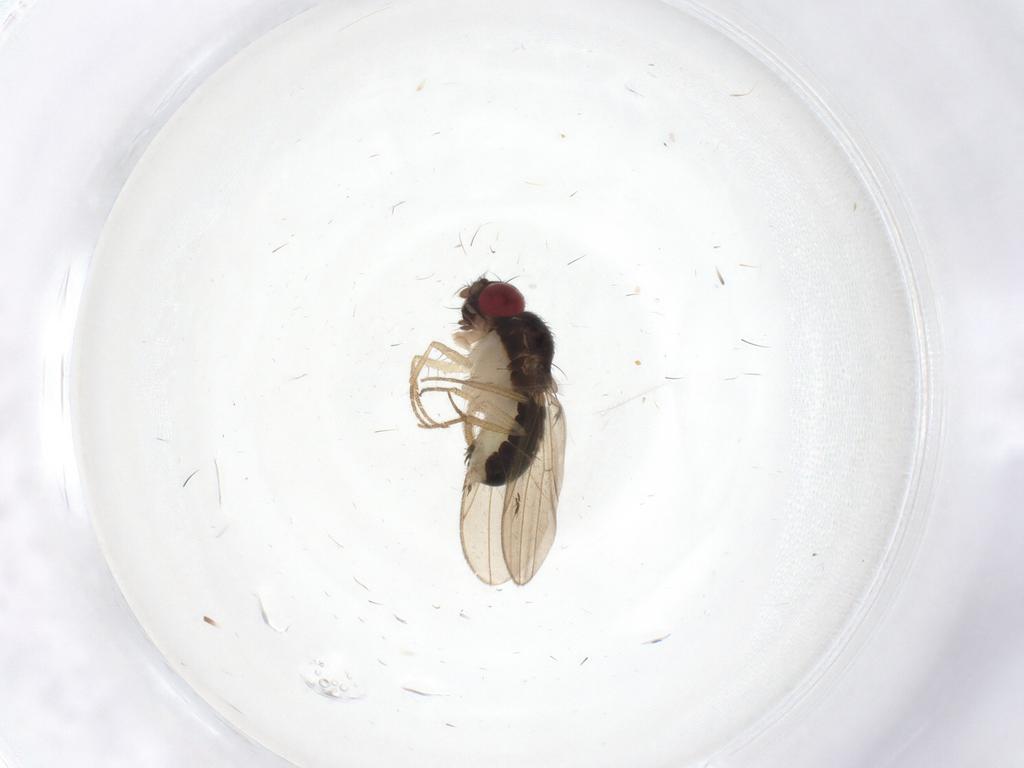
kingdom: Animalia
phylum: Arthropoda
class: Insecta
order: Diptera
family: Drosophilidae
